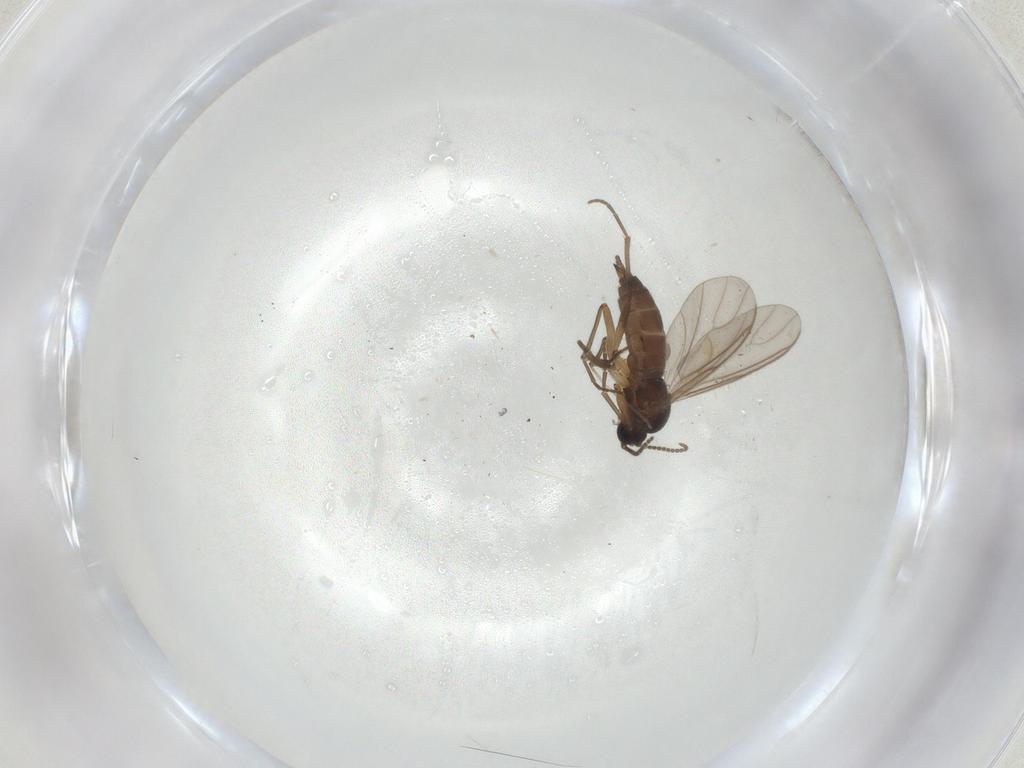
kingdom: Animalia
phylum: Arthropoda
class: Insecta
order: Diptera
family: Sciaridae
